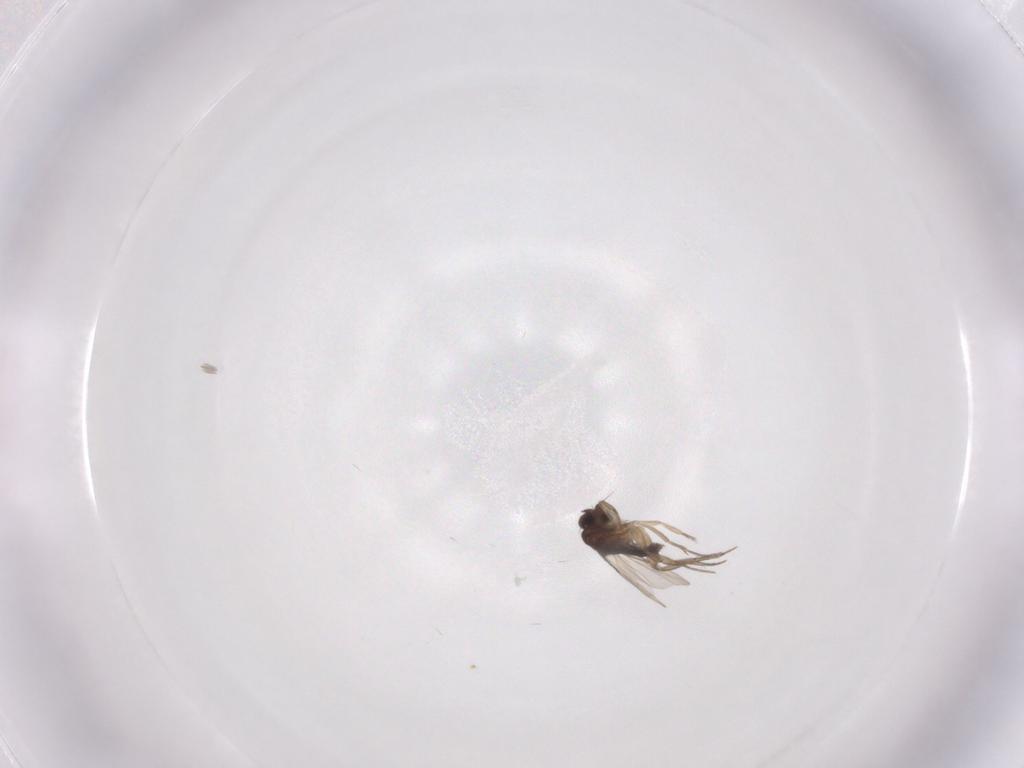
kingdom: Animalia
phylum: Arthropoda
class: Insecta
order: Diptera
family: Phoridae
